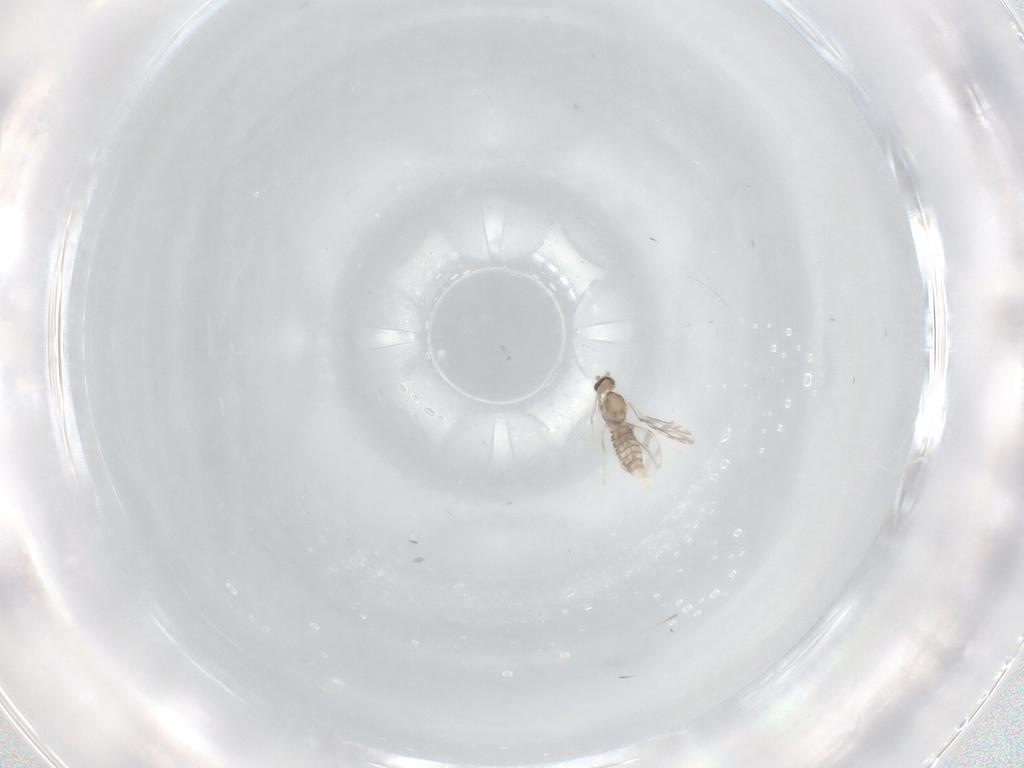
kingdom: Animalia
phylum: Arthropoda
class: Insecta
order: Diptera
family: Cecidomyiidae
